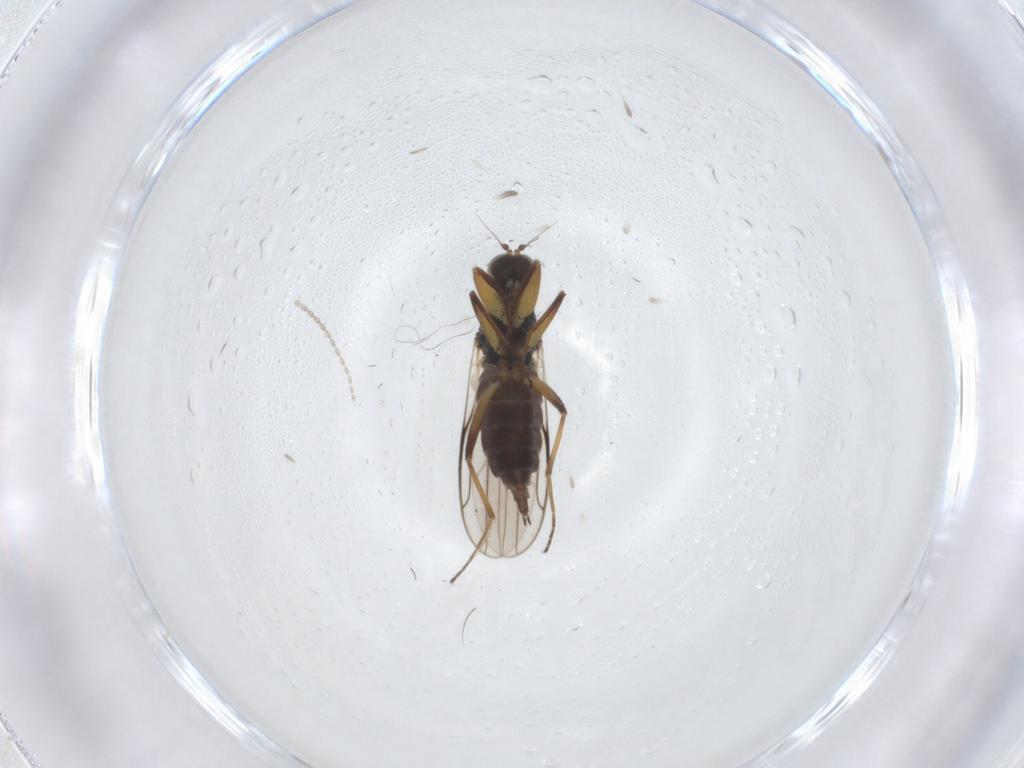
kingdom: Animalia
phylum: Arthropoda
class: Insecta
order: Diptera
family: Hybotidae
